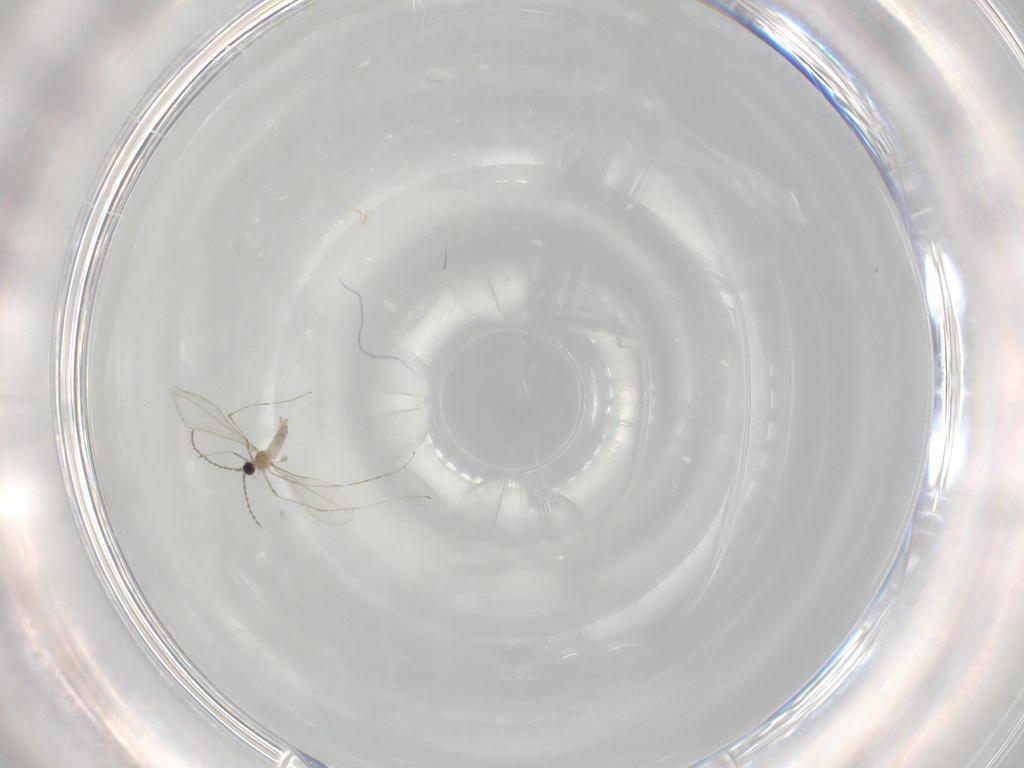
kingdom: Animalia
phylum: Arthropoda
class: Insecta
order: Diptera
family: Cecidomyiidae
